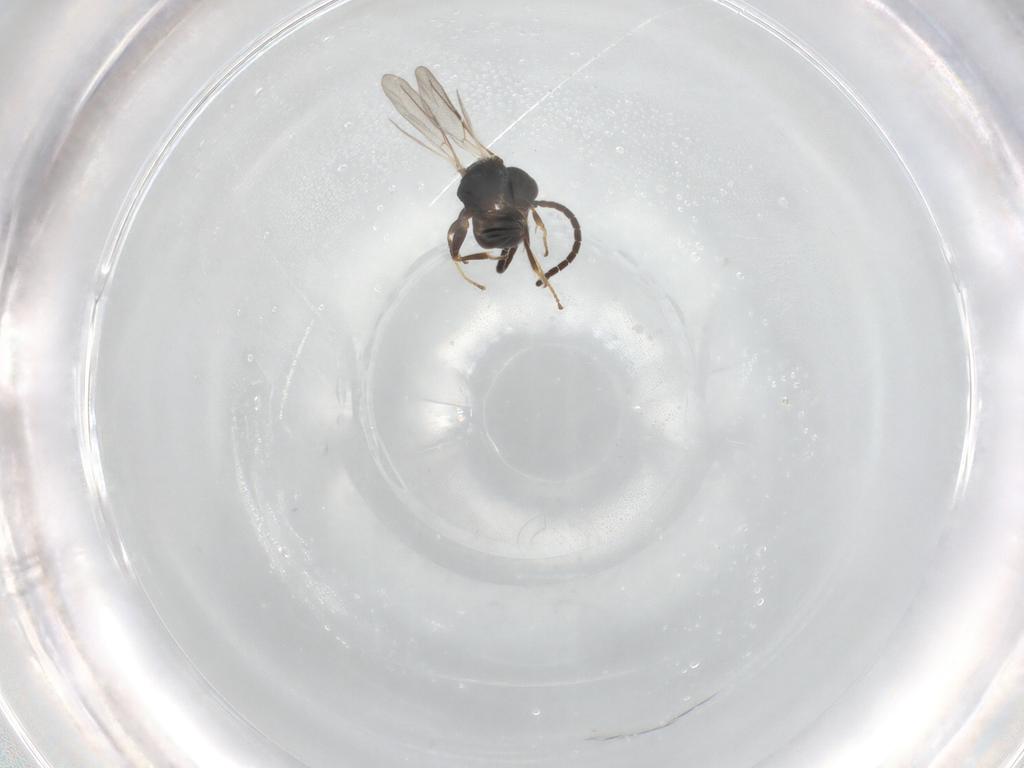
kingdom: Animalia
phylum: Arthropoda
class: Insecta
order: Hymenoptera
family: Bethylidae
